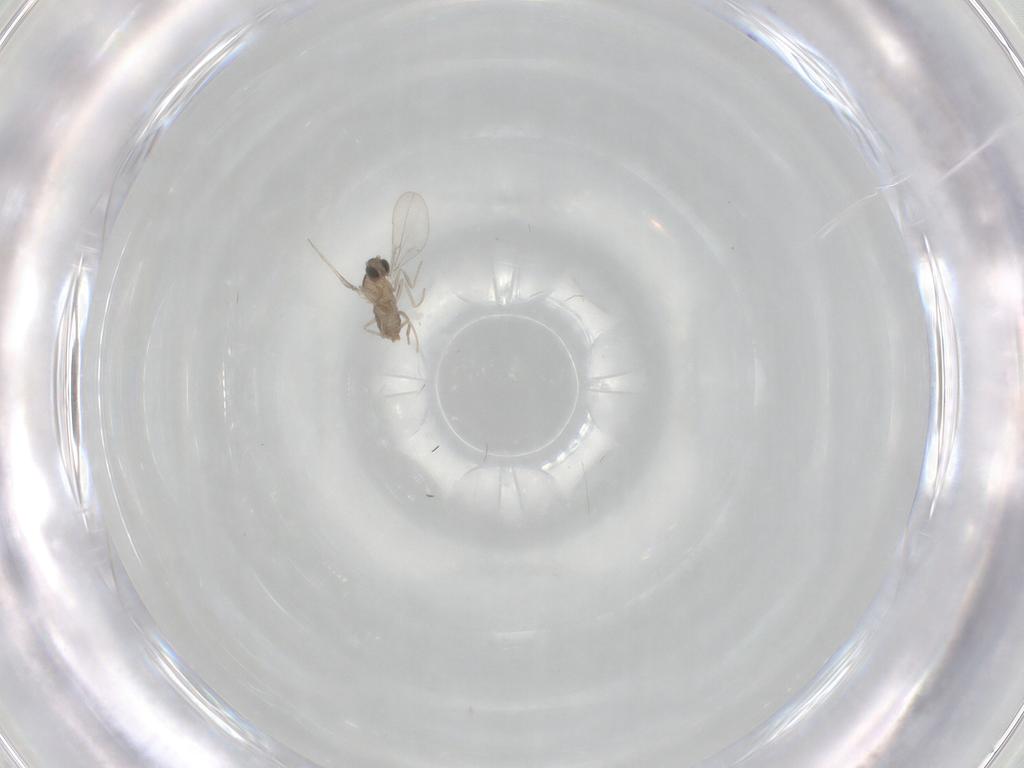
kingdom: Animalia
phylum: Arthropoda
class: Insecta
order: Diptera
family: Cecidomyiidae
